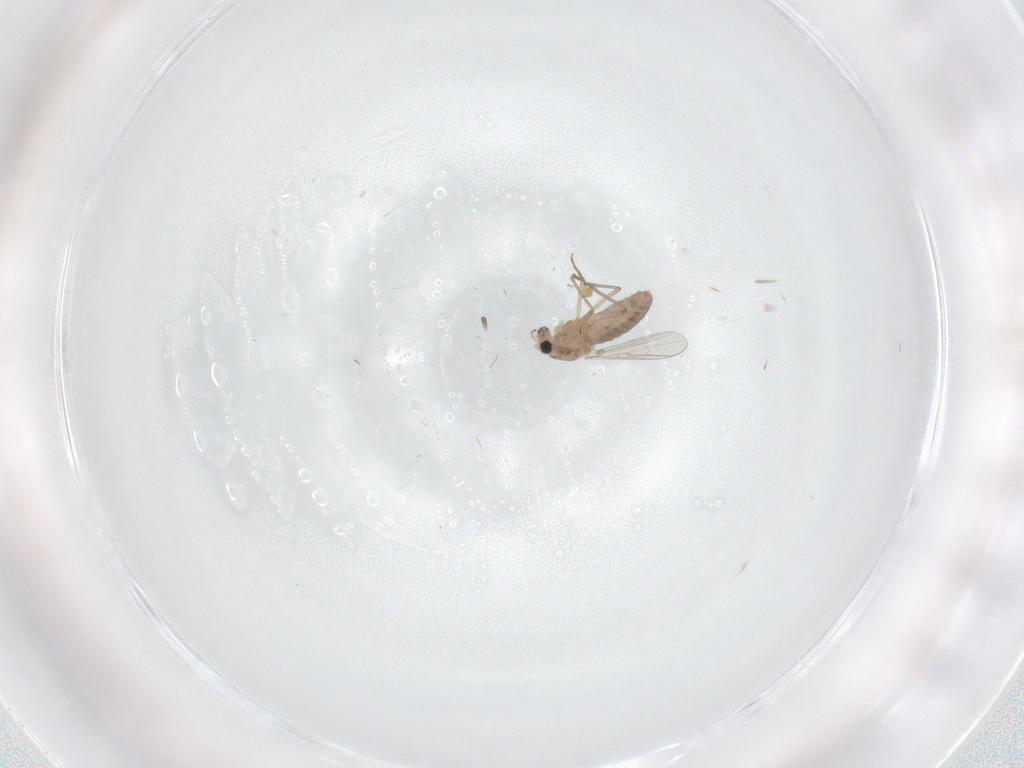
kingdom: Animalia
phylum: Arthropoda
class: Insecta
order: Diptera
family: Chironomidae
